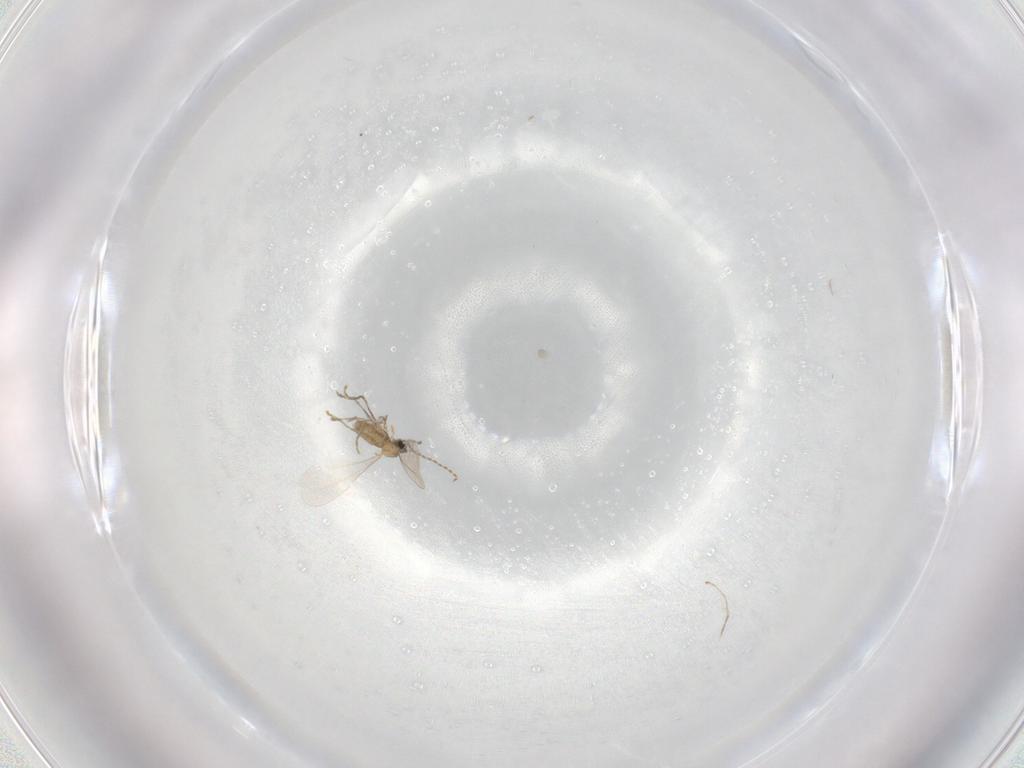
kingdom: Animalia
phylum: Arthropoda
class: Insecta
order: Diptera
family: Cecidomyiidae
